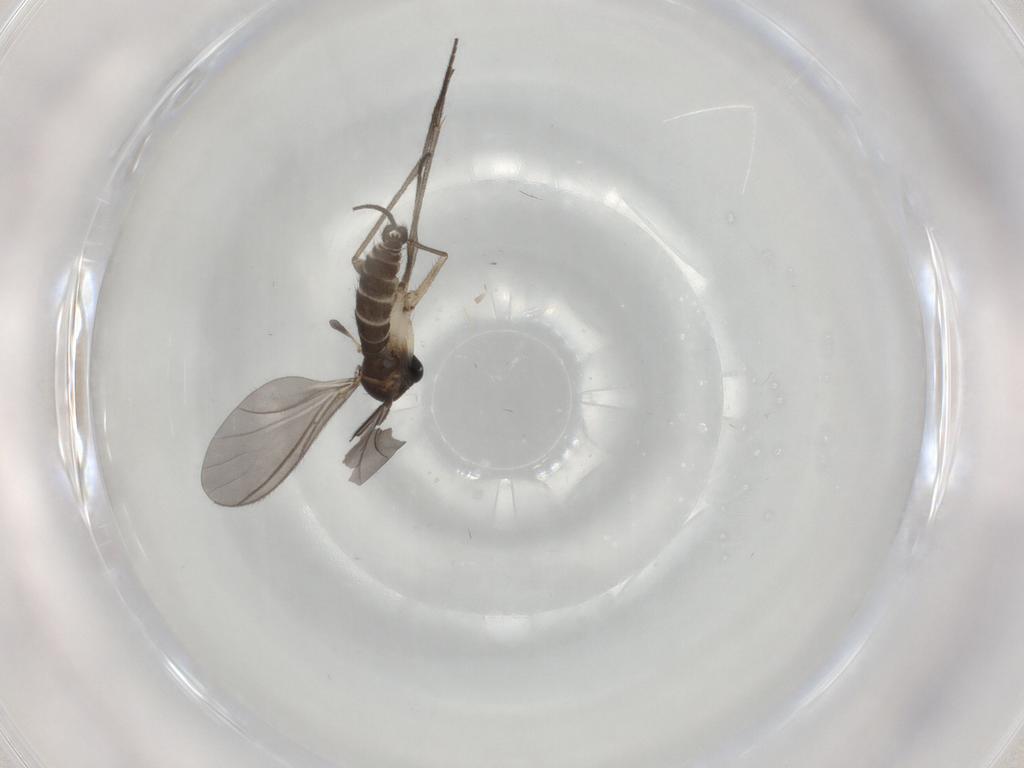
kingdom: Animalia
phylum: Arthropoda
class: Insecta
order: Diptera
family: Sciaridae
